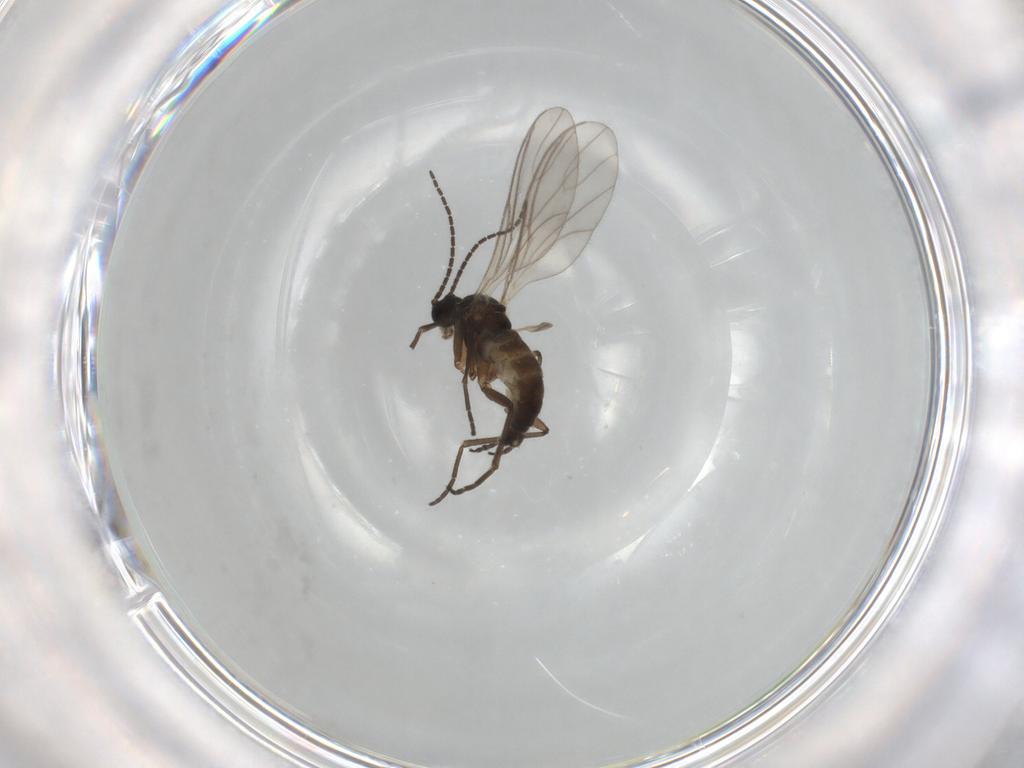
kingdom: Animalia
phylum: Arthropoda
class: Insecta
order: Diptera
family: Sciaridae
